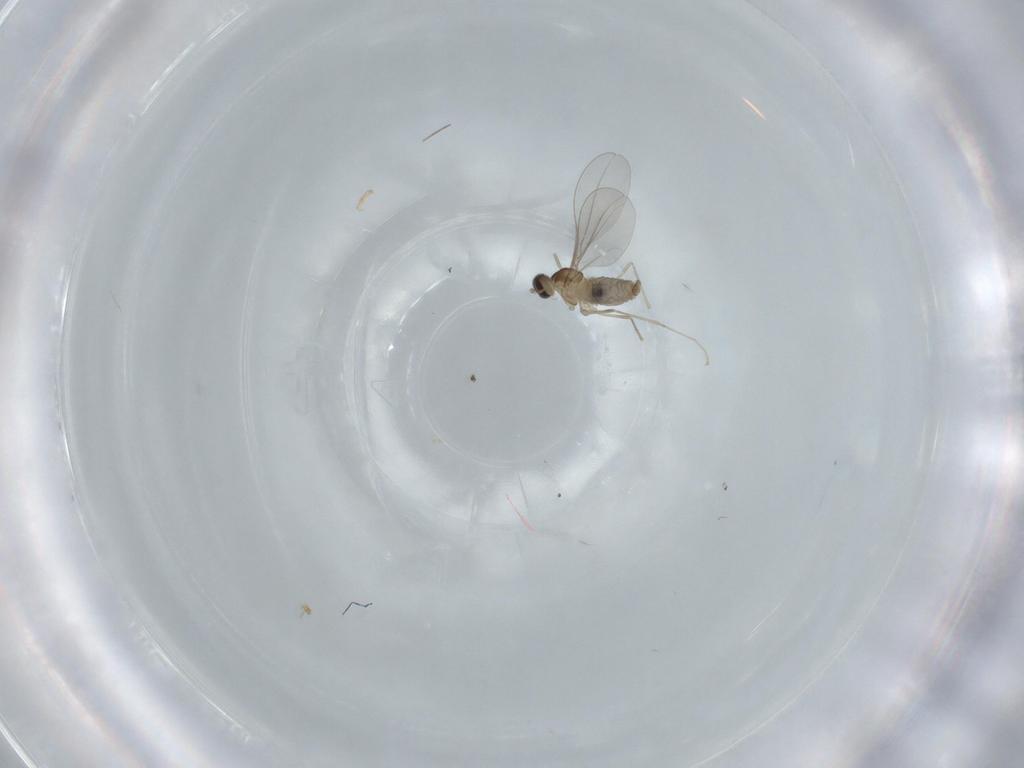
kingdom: Animalia
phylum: Arthropoda
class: Insecta
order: Diptera
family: Cecidomyiidae
